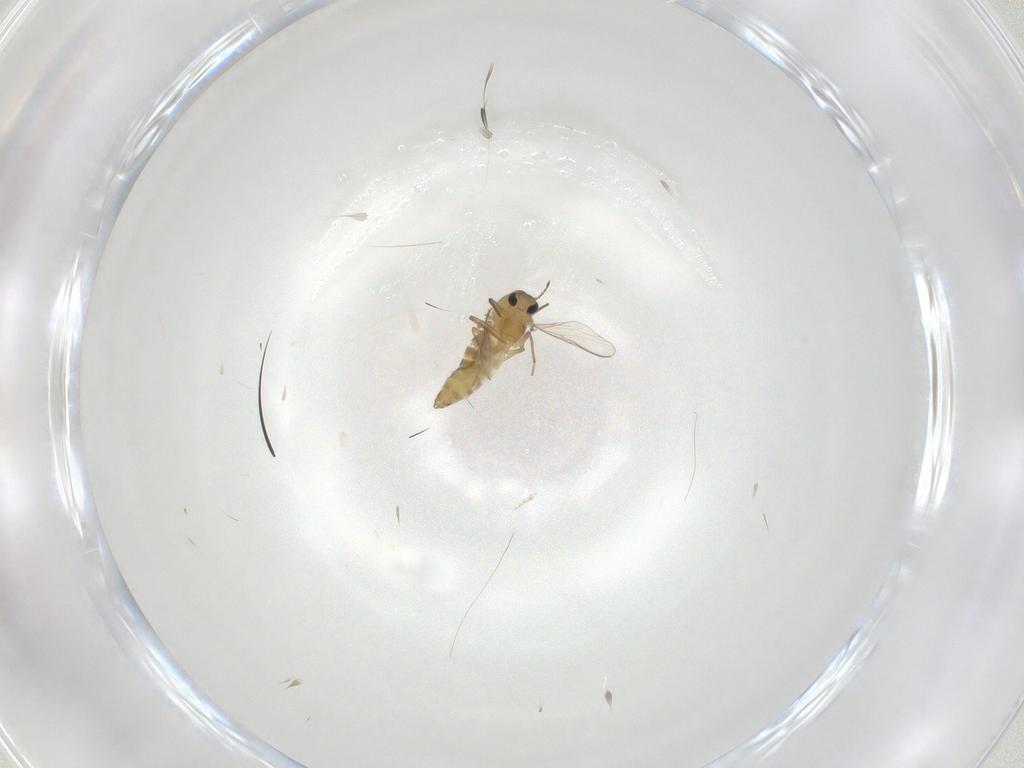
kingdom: Animalia
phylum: Arthropoda
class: Insecta
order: Diptera
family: Chironomidae
